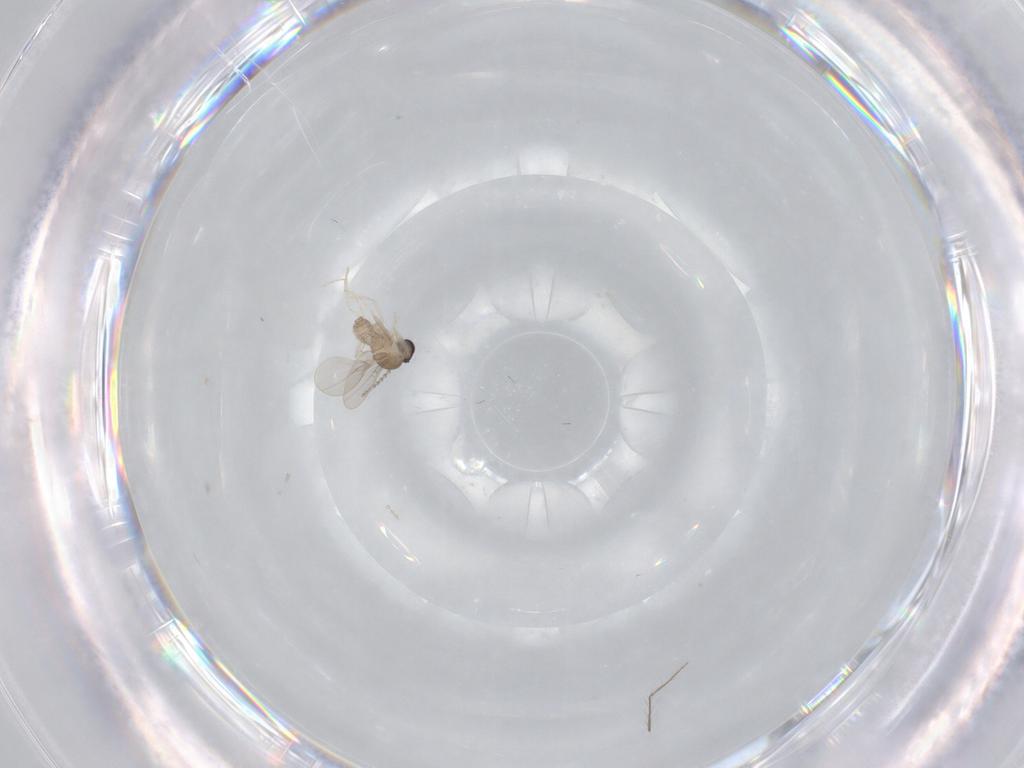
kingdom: Animalia
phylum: Arthropoda
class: Insecta
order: Diptera
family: Cecidomyiidae
